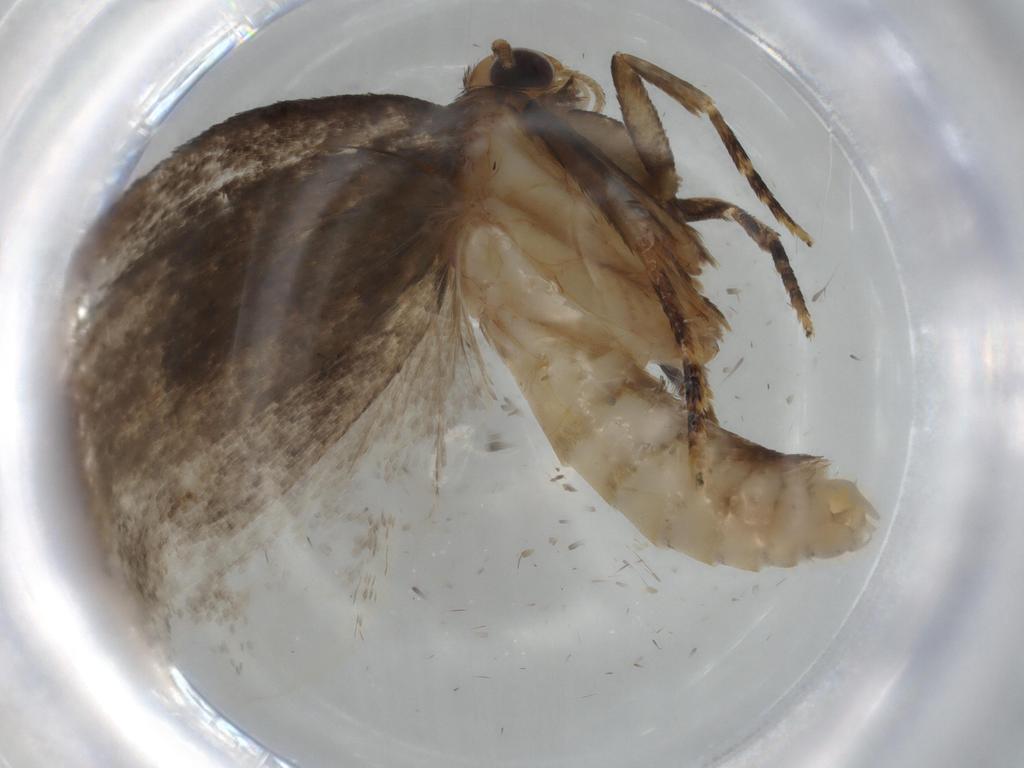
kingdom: Animalia
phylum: Arthropoda
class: Insecta
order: Lepidoptera
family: Oecophoridae
